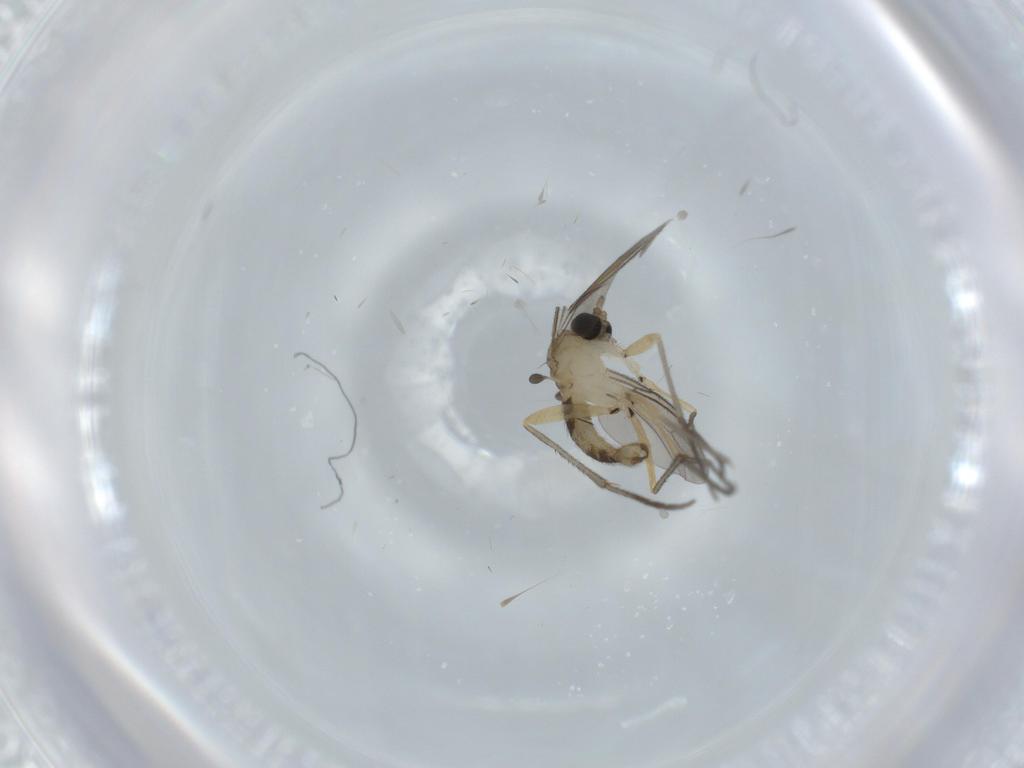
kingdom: Animalia
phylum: Arthropoda
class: Insecta
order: Diptera
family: Sciaridae
